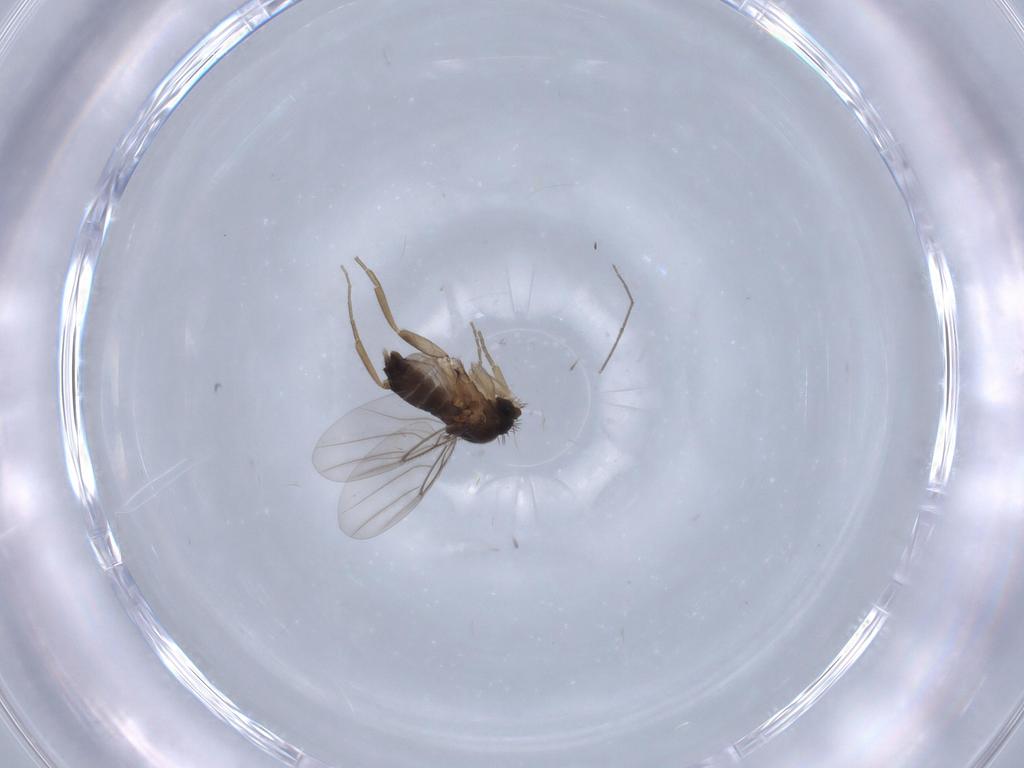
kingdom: Animalia
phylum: Arthropoda
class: Insecta
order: Diptera
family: Phoridae
